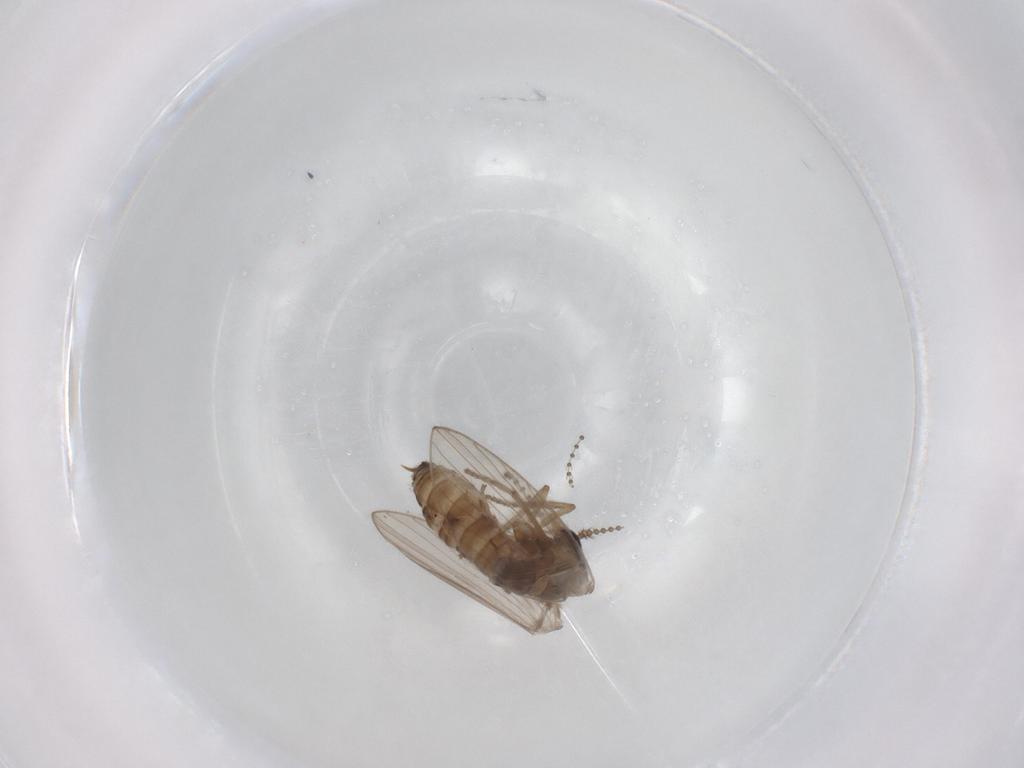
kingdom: Animalia
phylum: Arthropoda
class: Insecta
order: Diptera
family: Psychodidae
